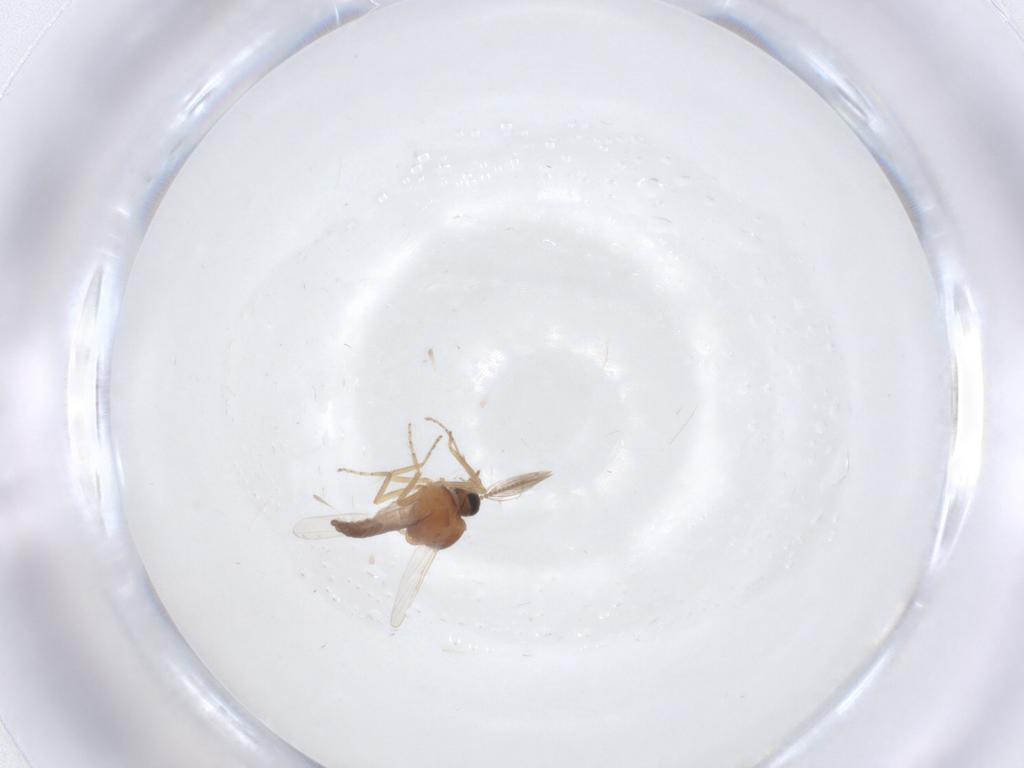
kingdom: Animalia
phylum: Arthropoda
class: Insecta
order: Diptera
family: Ceratopogonidae
